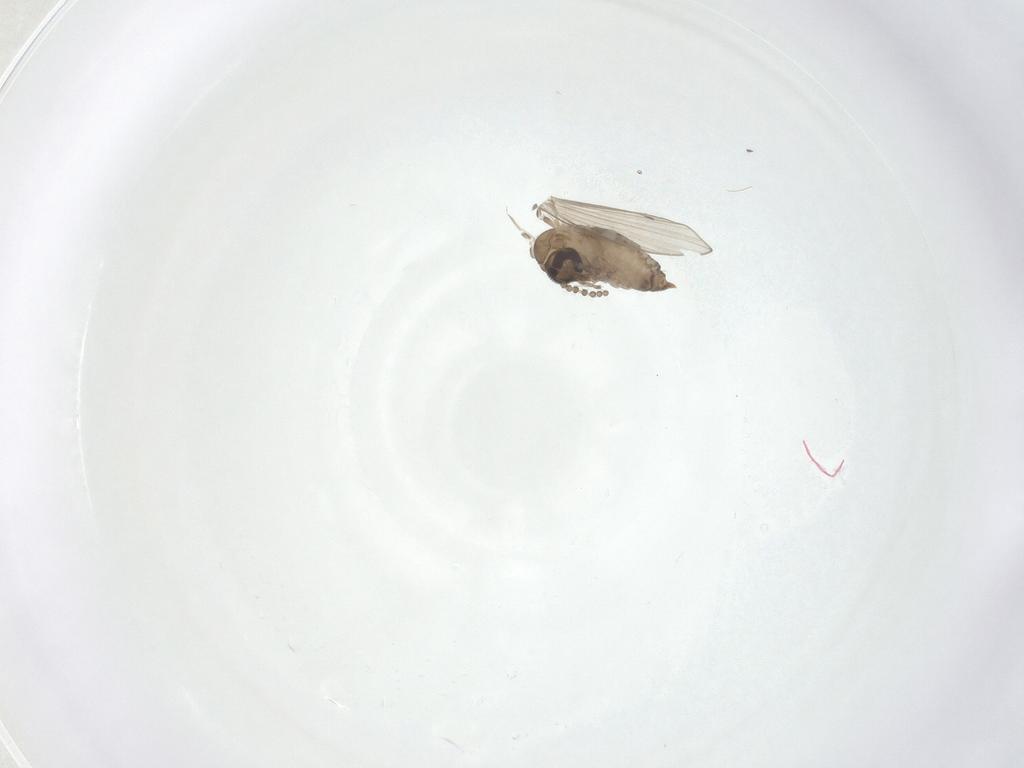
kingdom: Animalia
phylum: Arthropoda
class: Insecta
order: Diptera
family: Psychodidae
